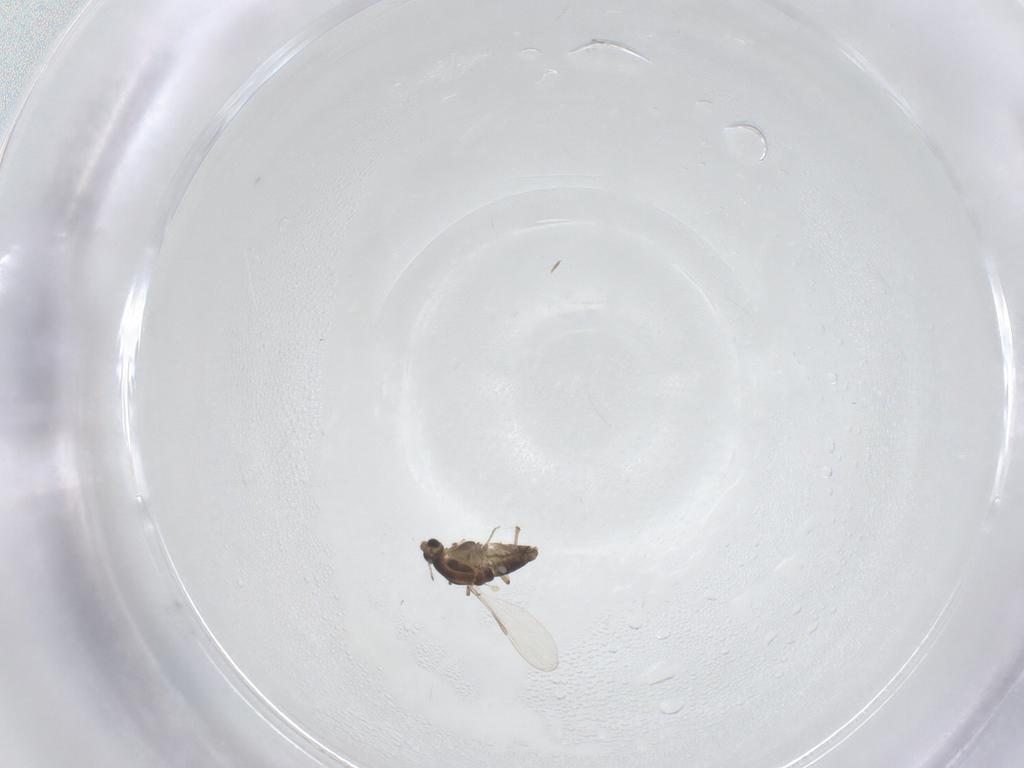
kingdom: Animalia
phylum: Arthropoda
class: Insecta
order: Diptera
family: Chironomidae
